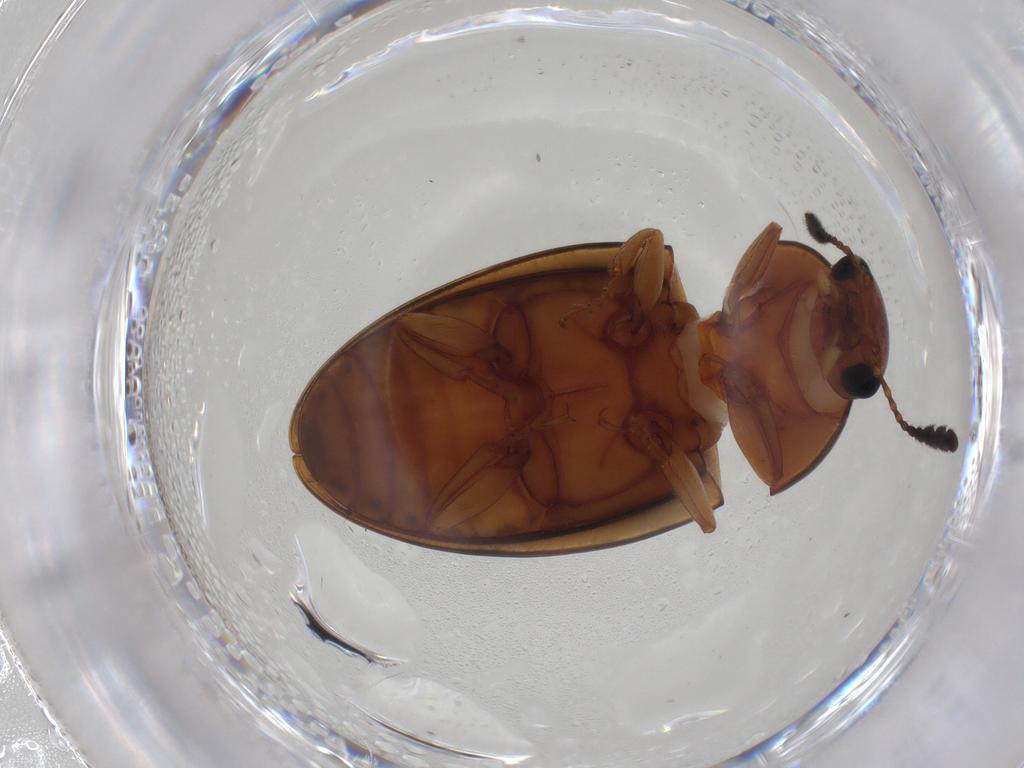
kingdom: Animalia
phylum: Arthropoda
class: Insecta
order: Coleoptera
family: Erotylidae
